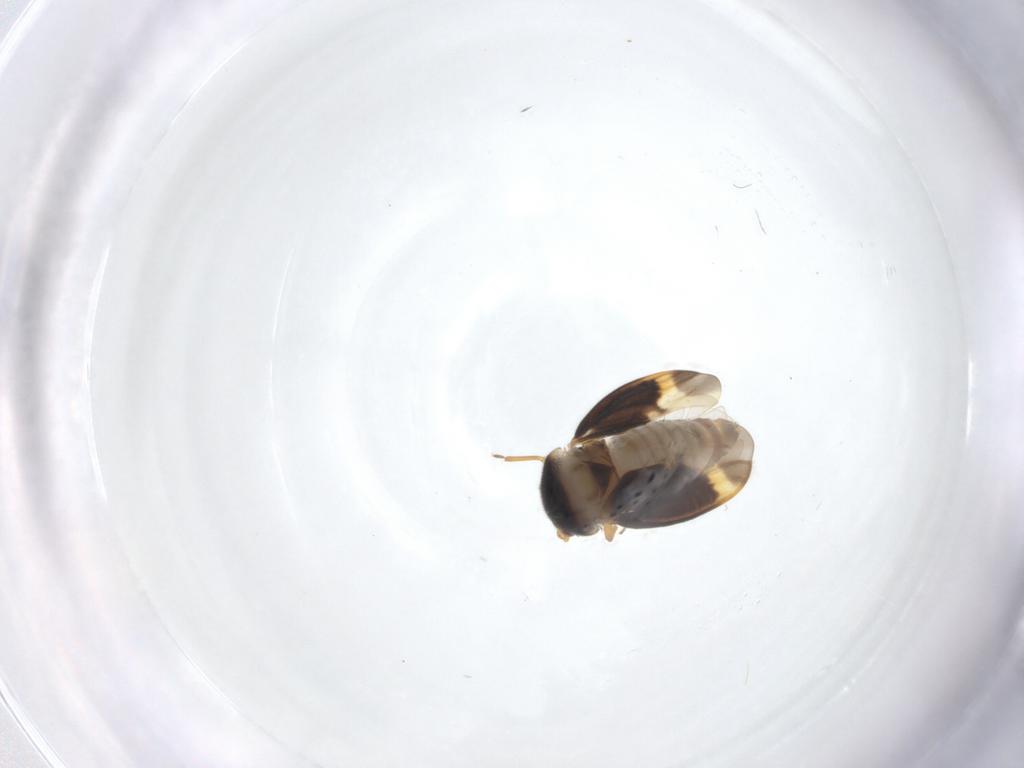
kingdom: Animalia
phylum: Arthropoda
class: Insecta
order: Hemiptera
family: Schizopteridae
